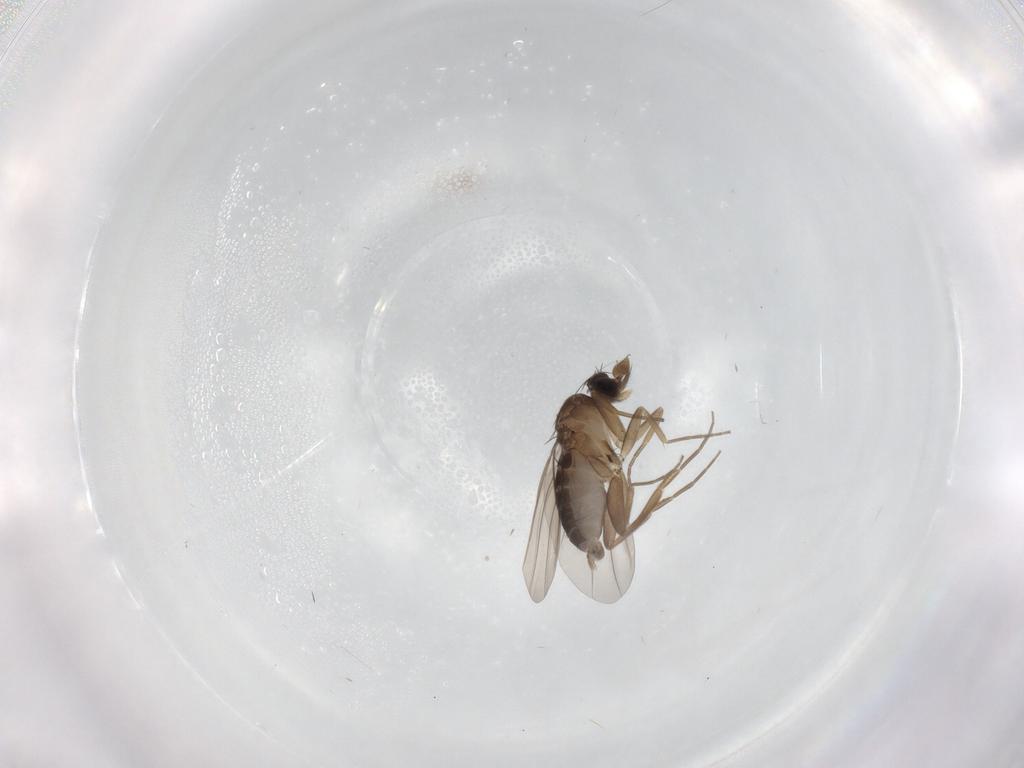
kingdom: Animalia
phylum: Arthropoda
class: Insecta
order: Diptera
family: Phoridae
